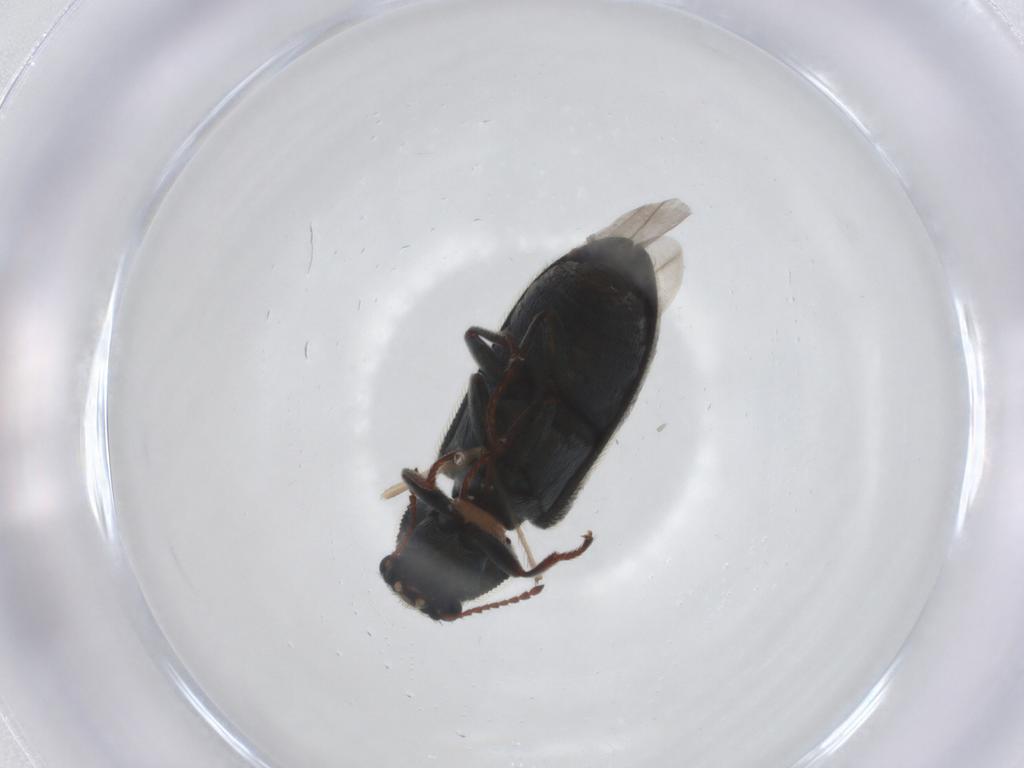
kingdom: Animalia
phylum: Arthropoda
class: Insecta
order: Coleoptera
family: Melyridae
